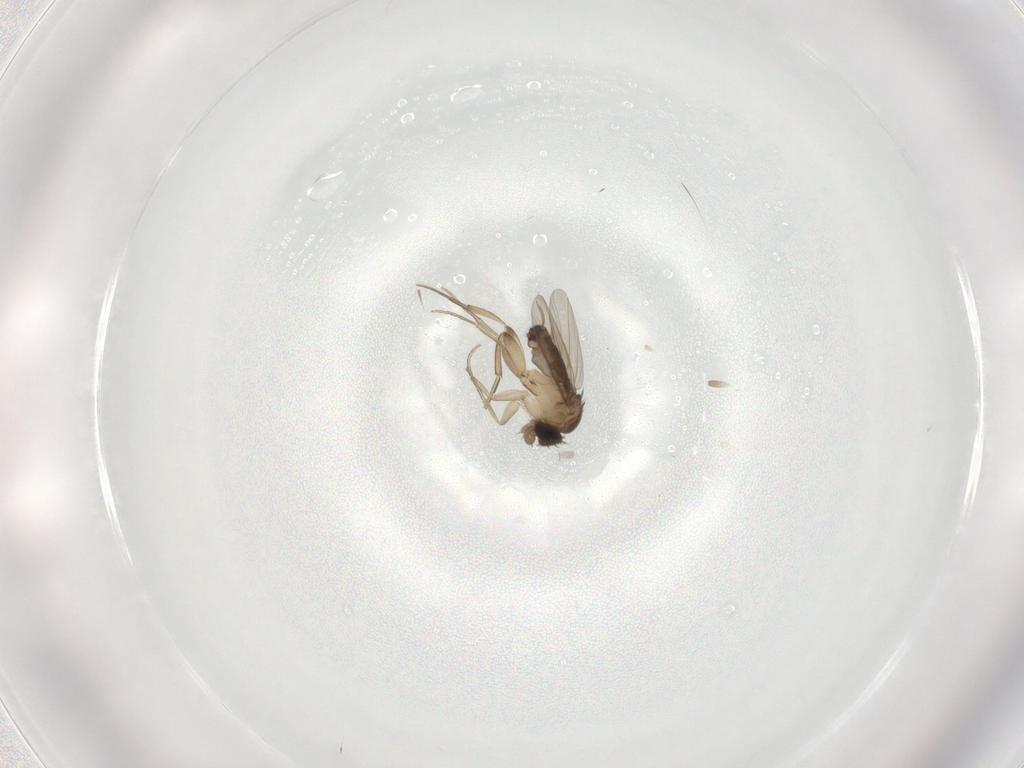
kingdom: Animalia
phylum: Arthropoda
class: Insecta
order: Diptera
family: Phoridae
